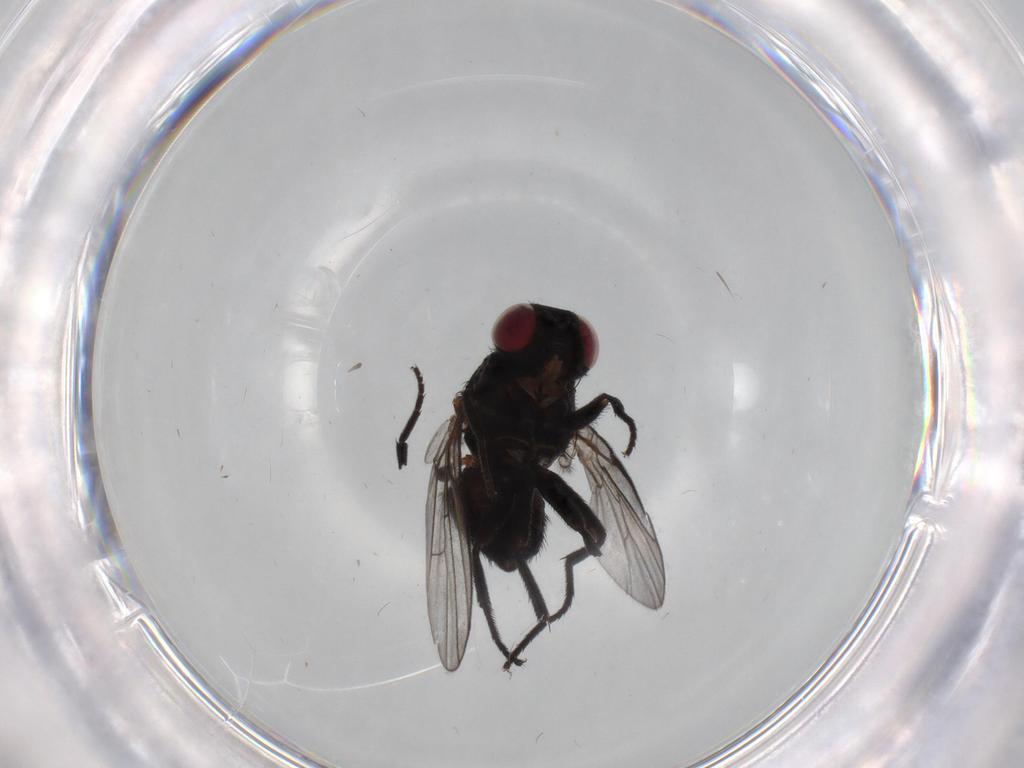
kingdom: Animalia
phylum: Arthropoda
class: Insecta
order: Diptera
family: Agromyzidae
